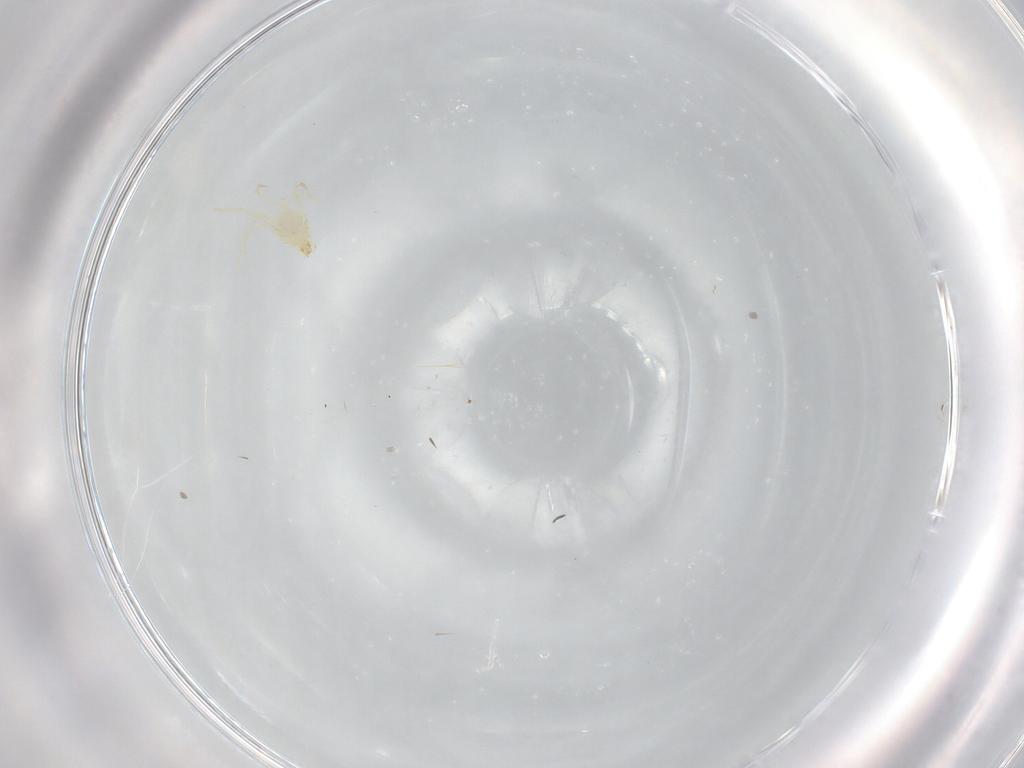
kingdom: Animalia
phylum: Arthropoda
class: Arachnida
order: Trombidiformes
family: Erythraeidae
